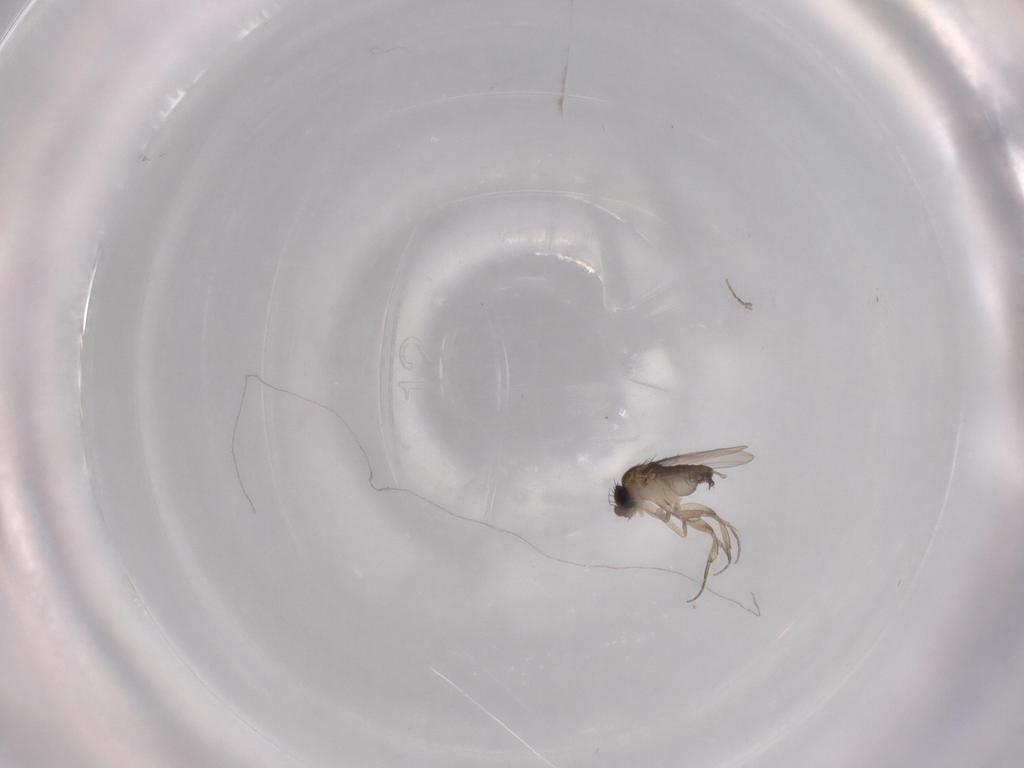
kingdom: Animalia
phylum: Arthropoda
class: Insecta
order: Diptera
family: Phoridae
